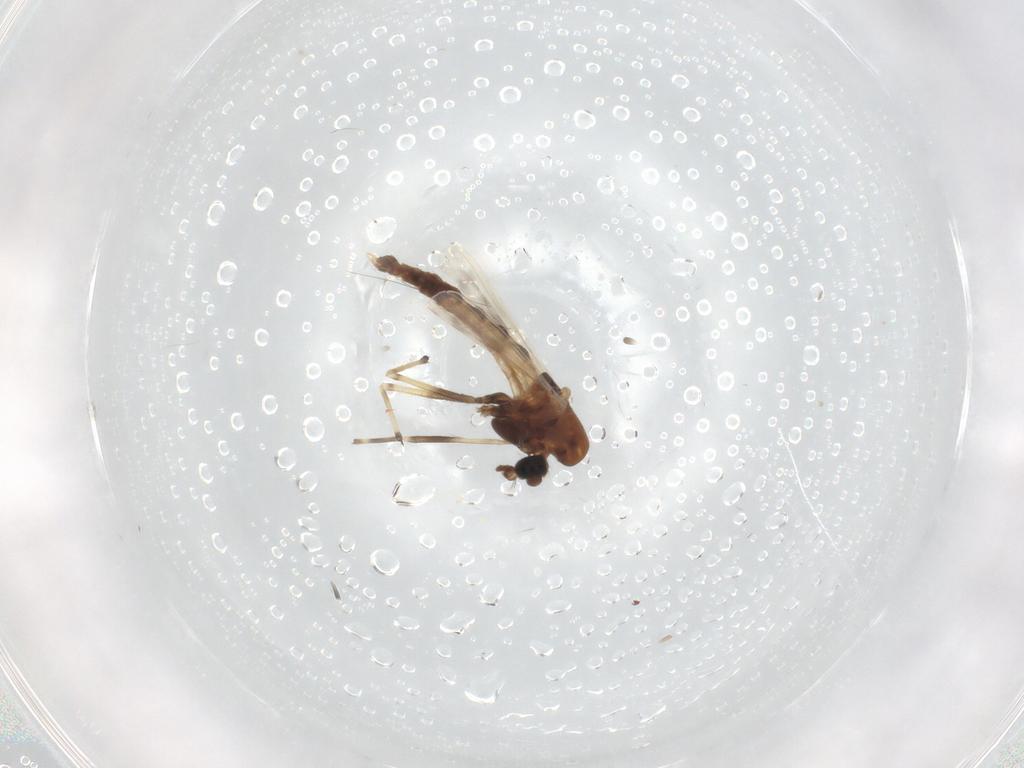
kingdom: Animalia
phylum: Arthropoda
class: Insecta
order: Diptera
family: Chironomidae
